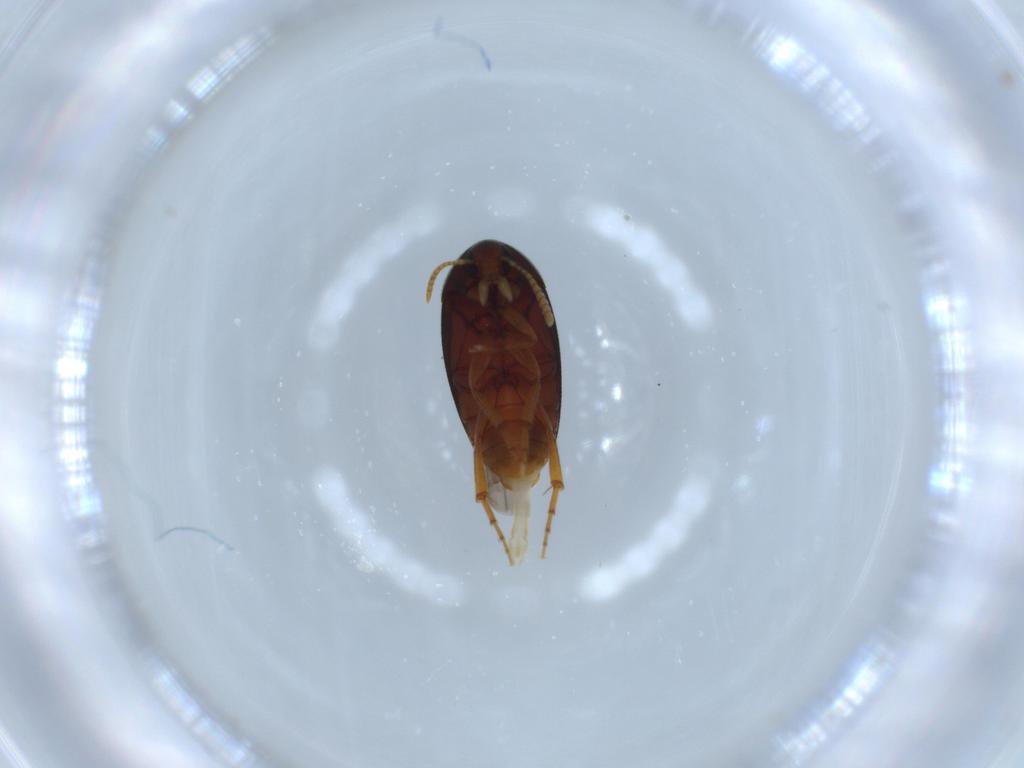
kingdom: Animalia
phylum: Arthropoda
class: Insecta
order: Coleoptera
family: Scraptiidae
